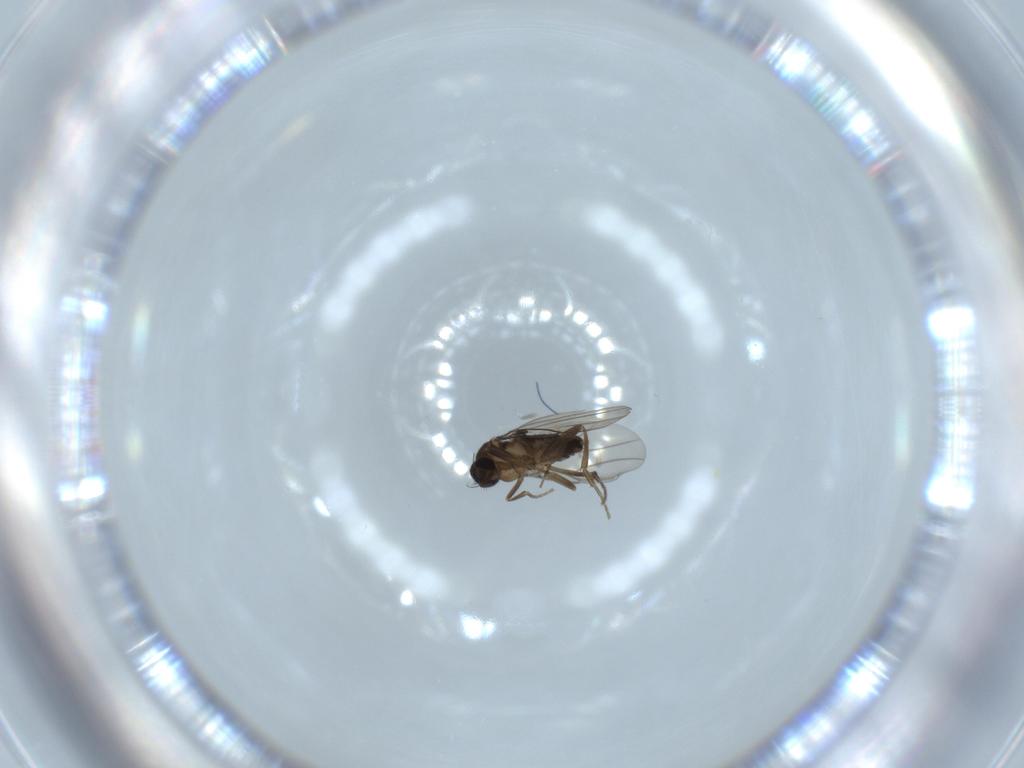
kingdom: Animalia
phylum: Arthropoda
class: Insecta
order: Diptera
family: Phoridae
